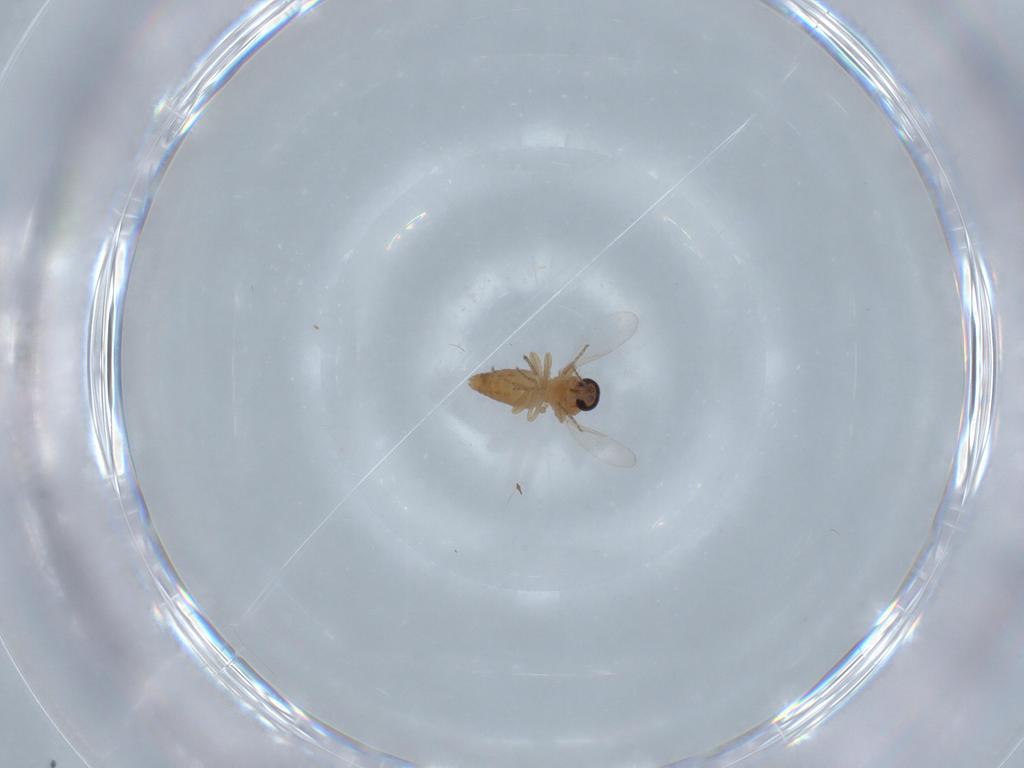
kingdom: Animalia
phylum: Arthropoda
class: Insecta
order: Diptera
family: Ceratopogonidae
